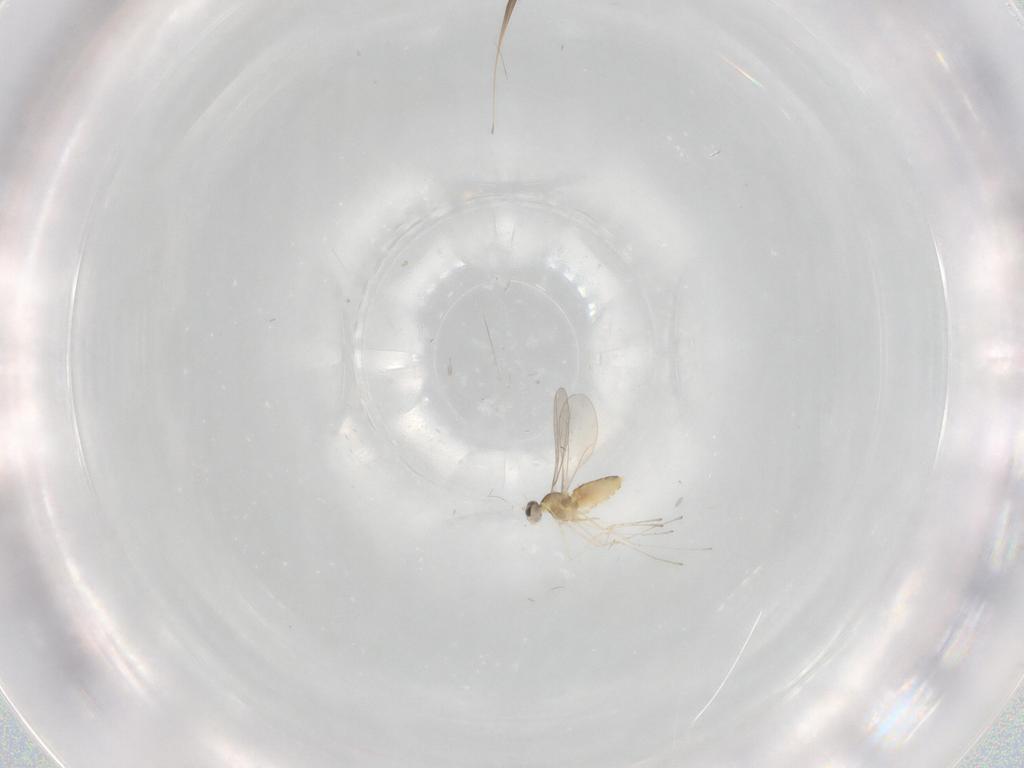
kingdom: Animalia
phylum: Arthropoda
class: Insecta
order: Diptera
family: Cecidomyiidae
